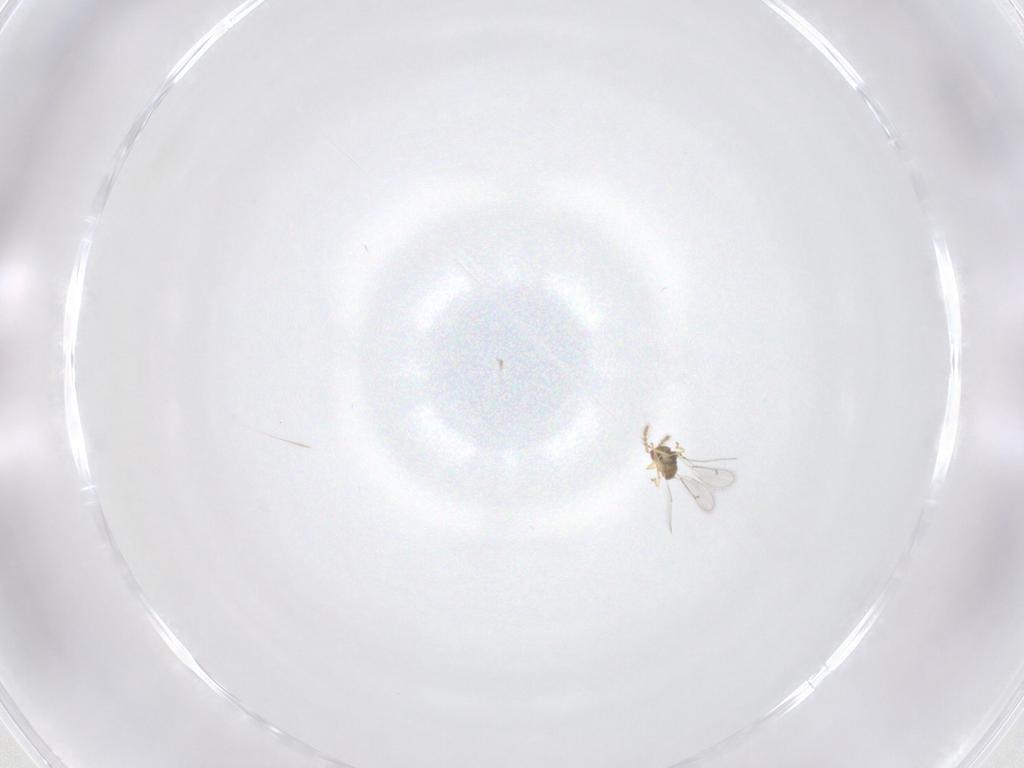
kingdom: Animalia
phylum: Arthropoda
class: Insecta
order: Hymenoptera
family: Eulophidae
